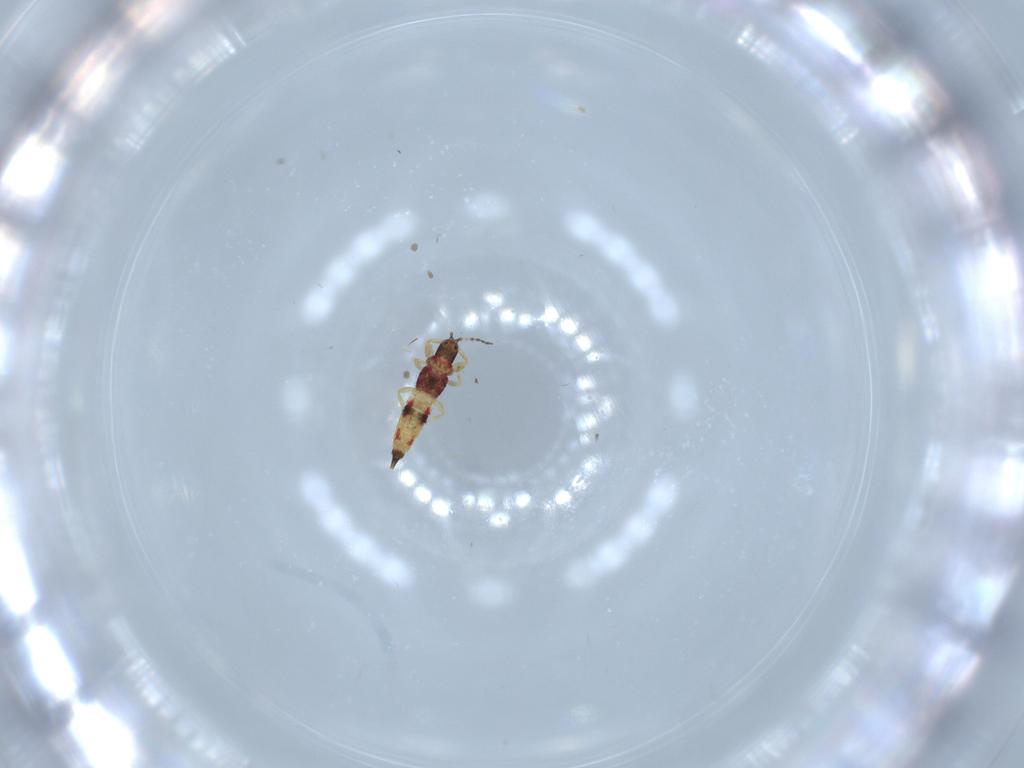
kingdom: Animalia
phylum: Arthropoda
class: Insecta
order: Thysanoptera
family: Phlaeothripidae
